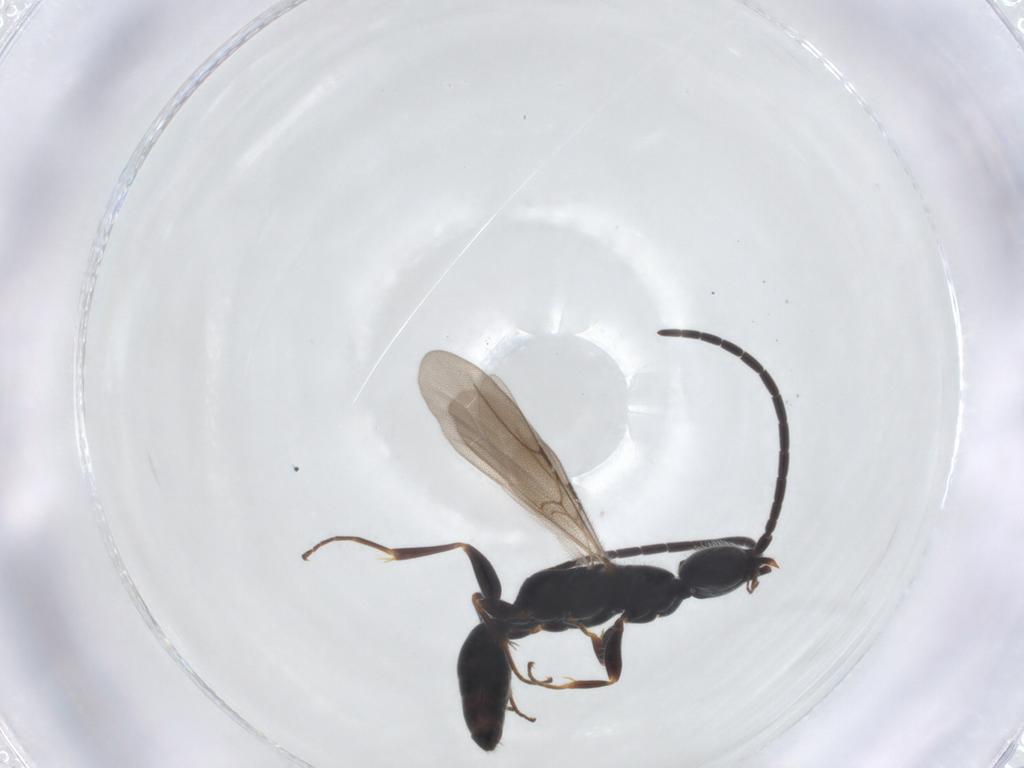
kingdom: Animalia
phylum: Arthropoda
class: Insecta
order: Hymenoptera
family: Bethylidae
